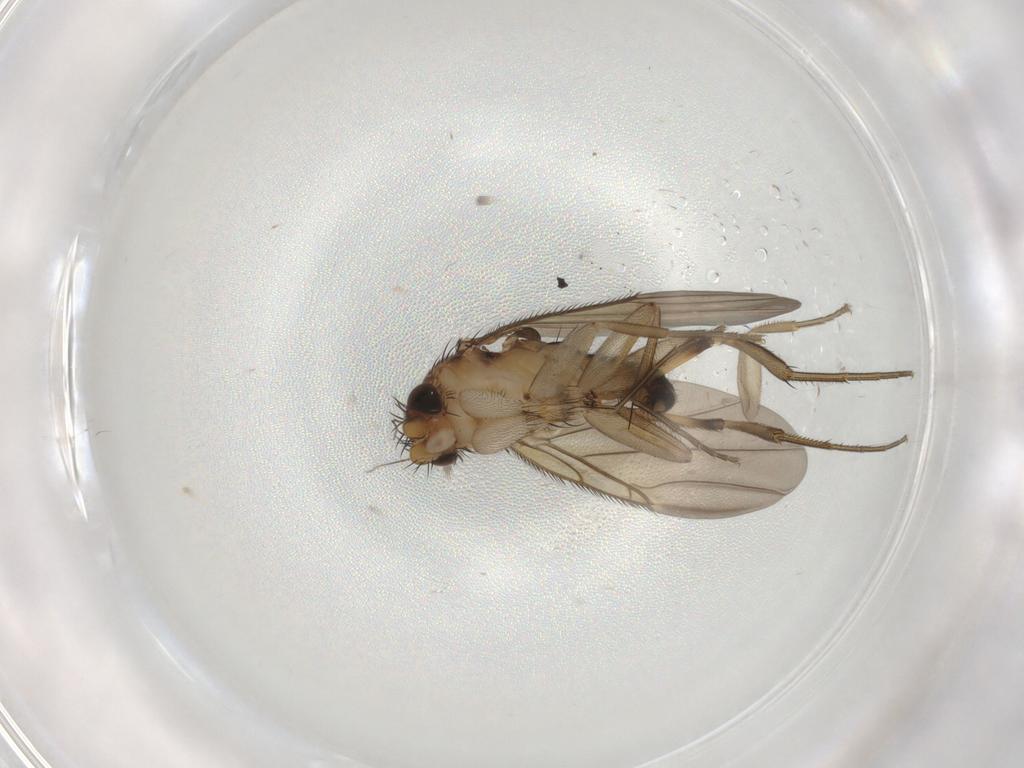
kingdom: Animalia
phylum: Arthropoda
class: Insecta
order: Diptera
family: Phoridae
